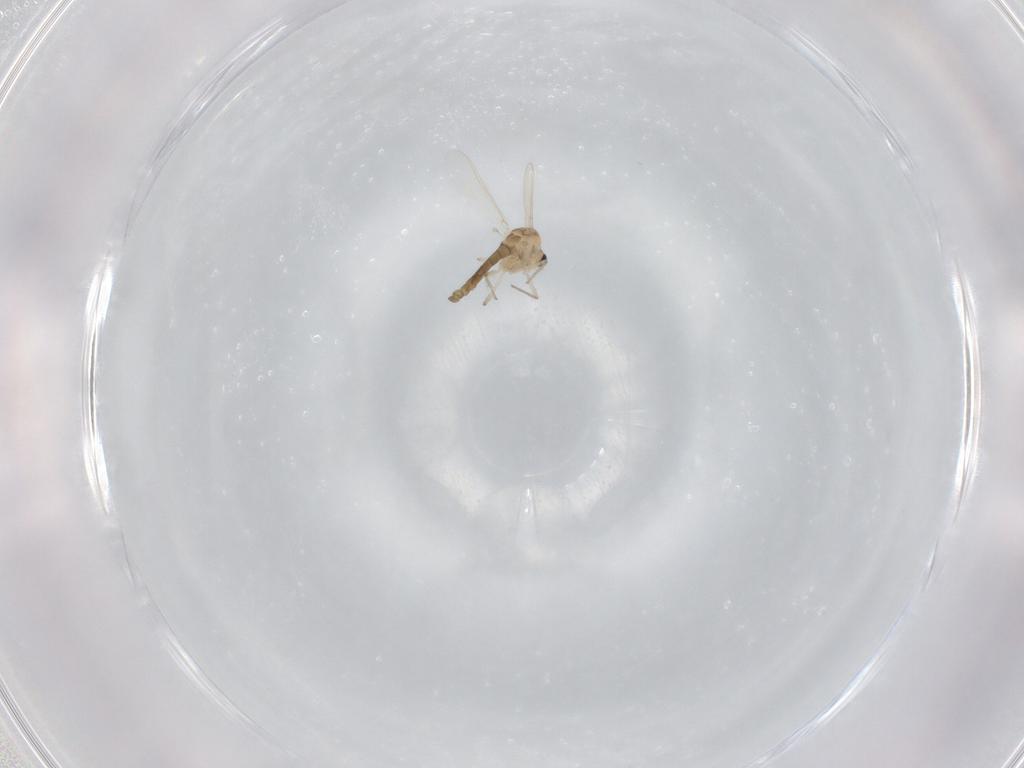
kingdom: Animalia
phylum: Arthropoda
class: Insecta
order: Diptera
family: Chironomidae
